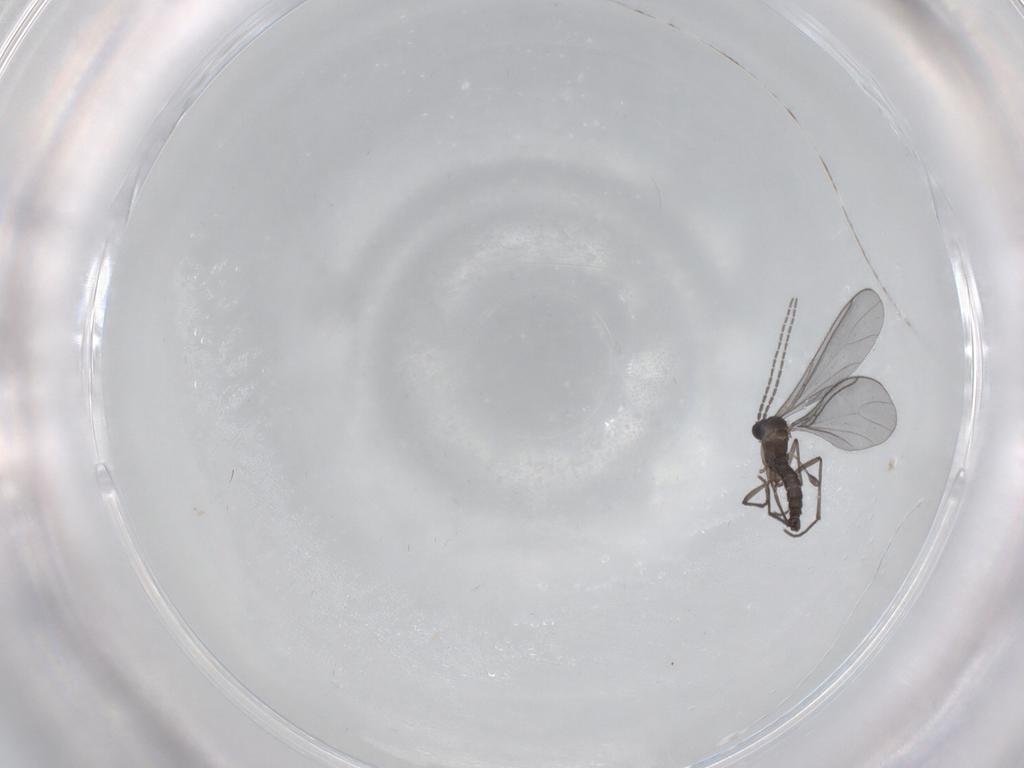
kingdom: Animalia
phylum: Arthropoda
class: Insecta
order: Diptera
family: Sciaridae
